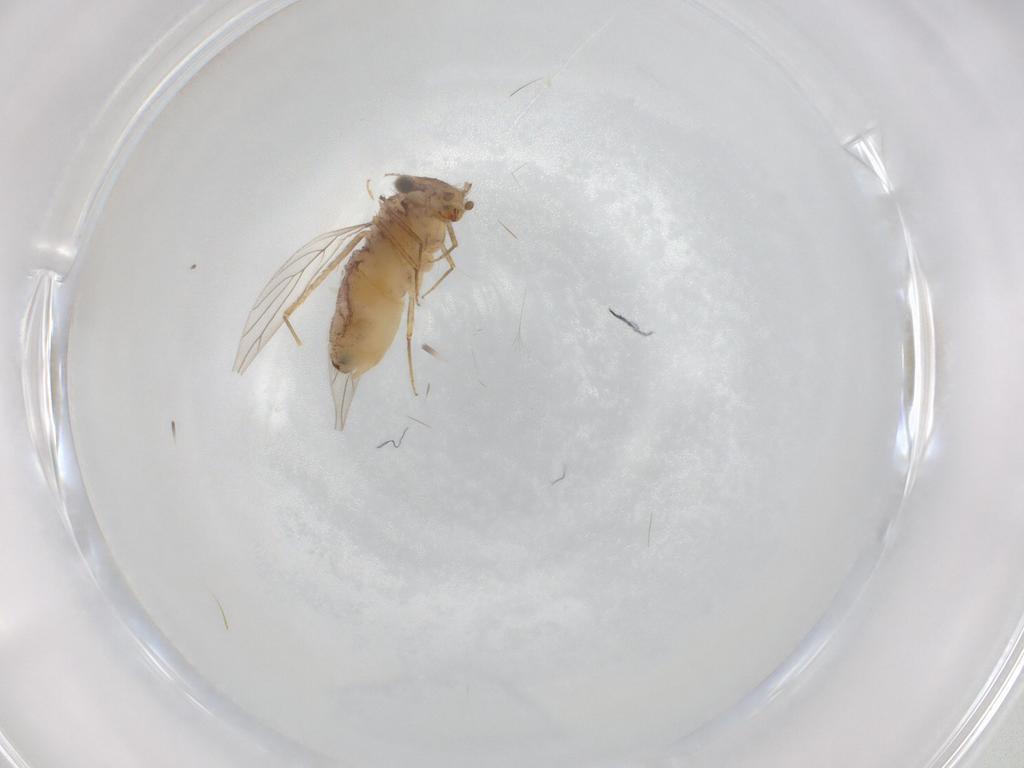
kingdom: Animalia
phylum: Arthropoda
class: Insecta
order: Psocodea
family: Lepidopsocidae
